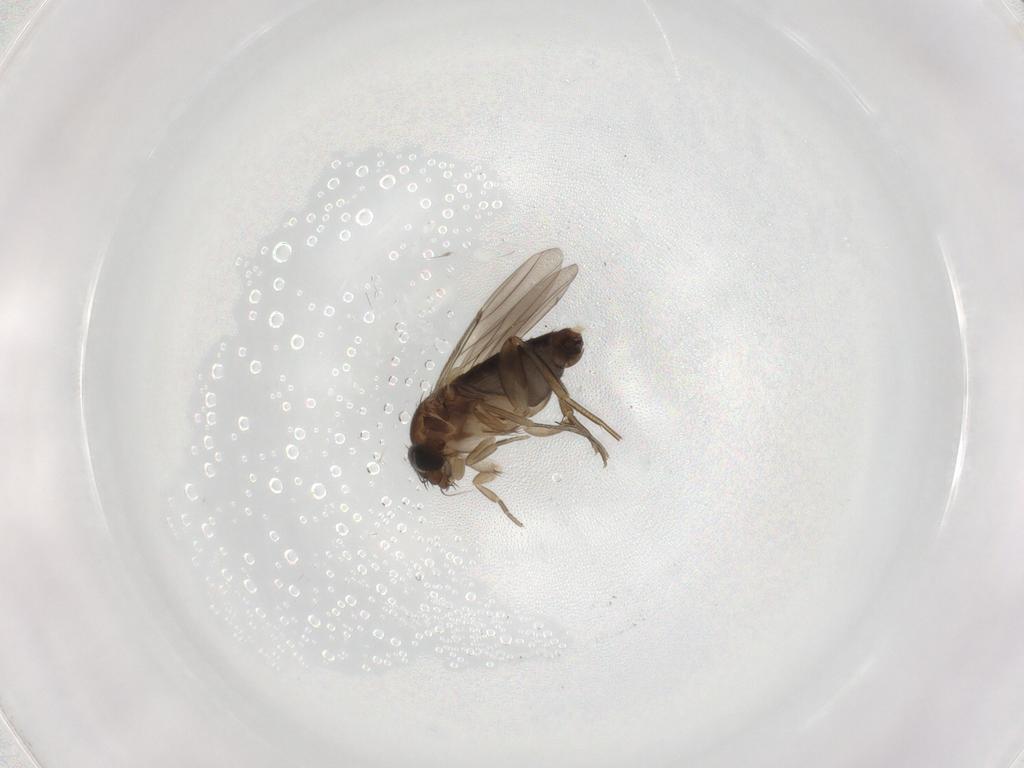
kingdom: Animalia
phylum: Arthropoda
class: Insecta
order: Diptera
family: Phoridae
